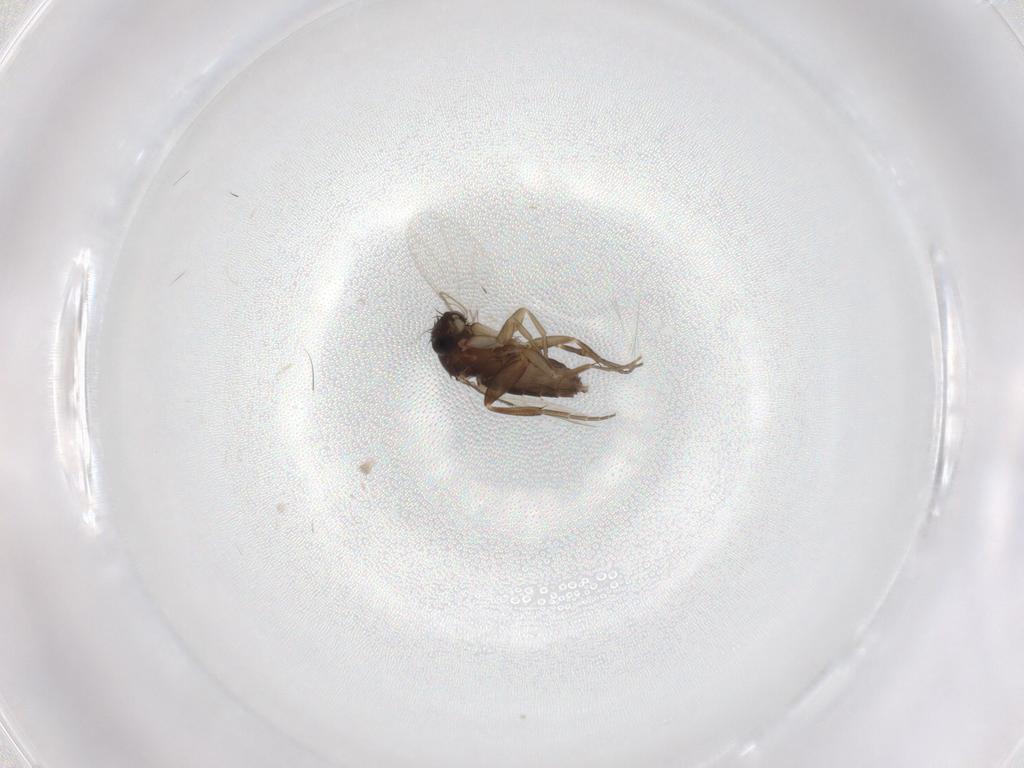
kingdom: Animalia
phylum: Arthropoda
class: Insecta
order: Diptera
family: Phoridae
